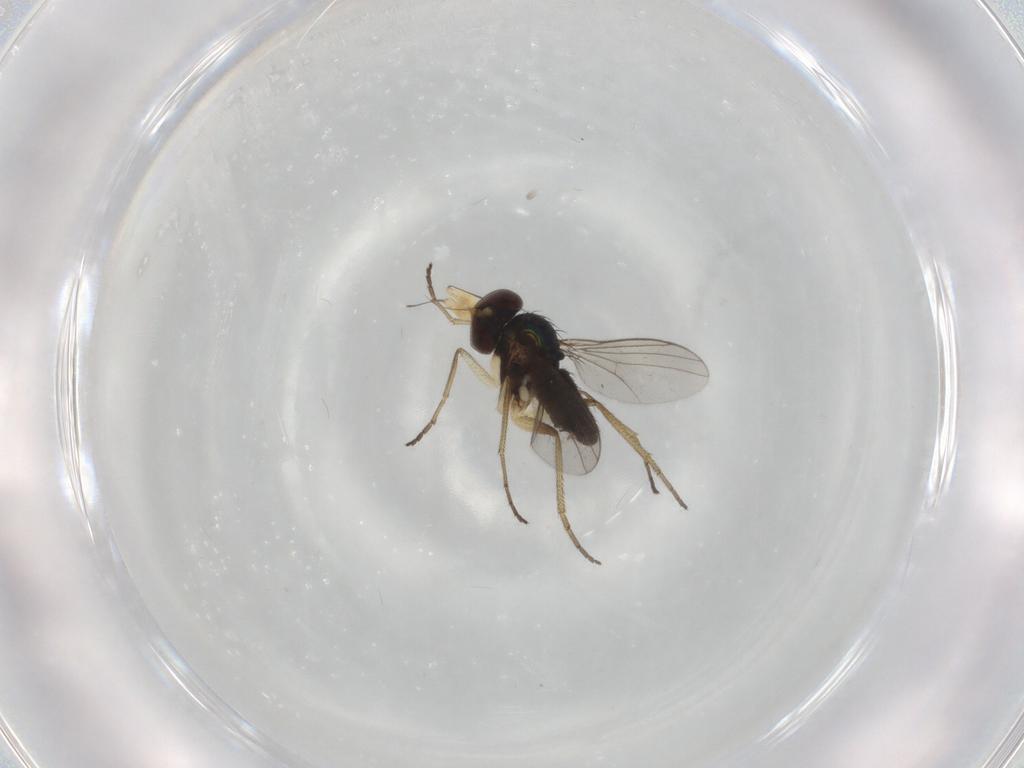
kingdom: Animalia
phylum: Arthropoda
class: Insecta
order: Diptera
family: Dolichopodidae
